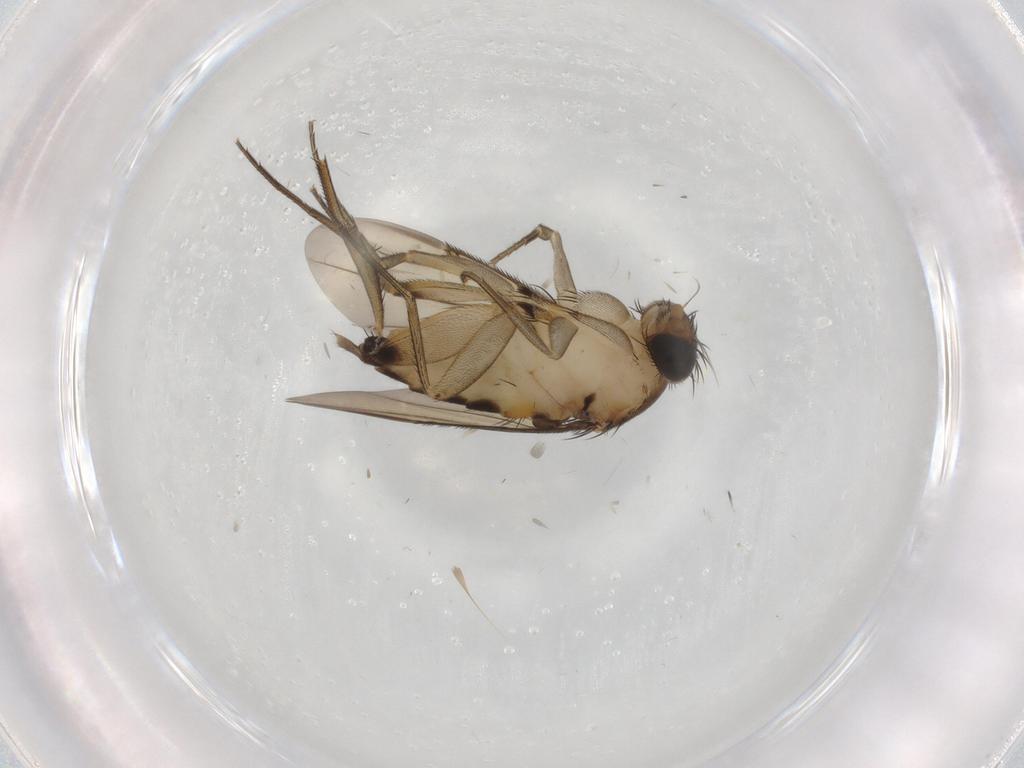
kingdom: Animalia
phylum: Arthropoda
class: Insecta
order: Diptera
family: Phoridae
